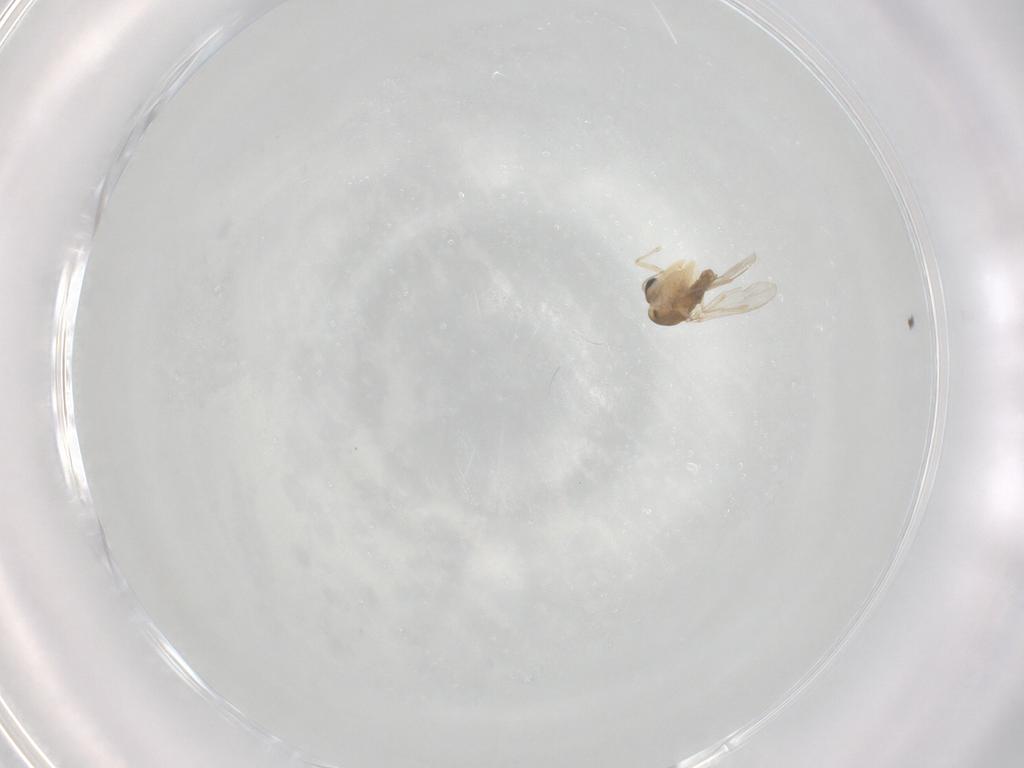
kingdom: Animalia
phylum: Arthropoda
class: Insecta
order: Diptera
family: Chironomidae
